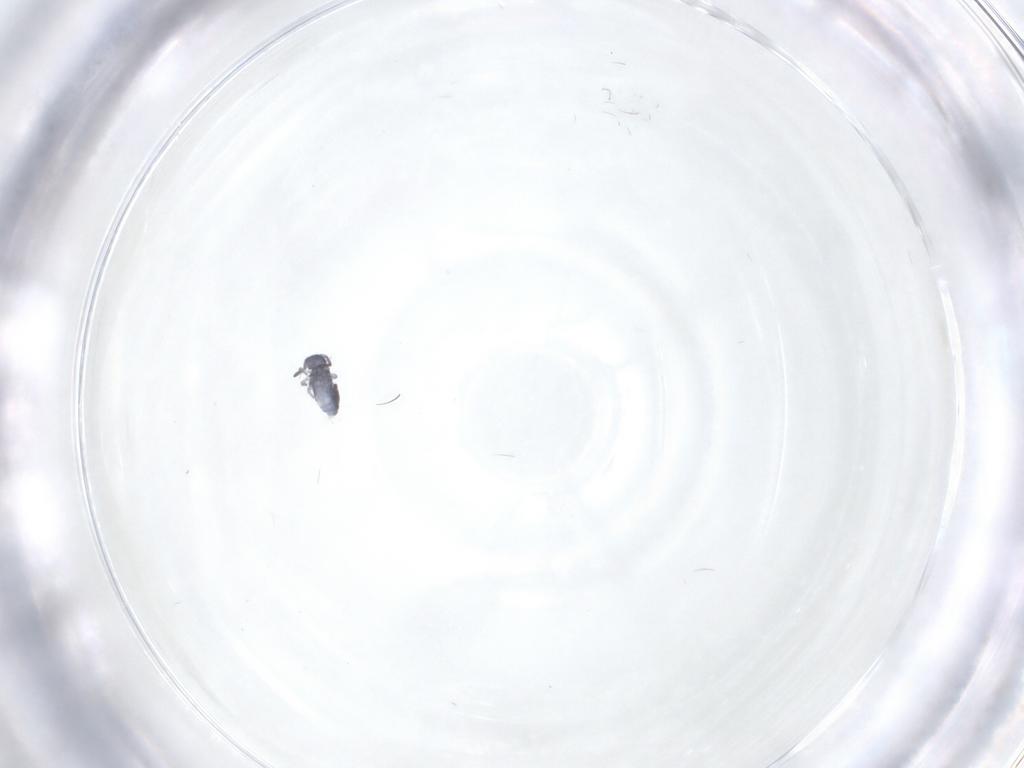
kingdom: Animalia
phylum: Arthropoda
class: Collembola
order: Symphypleona
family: Katiannidae
